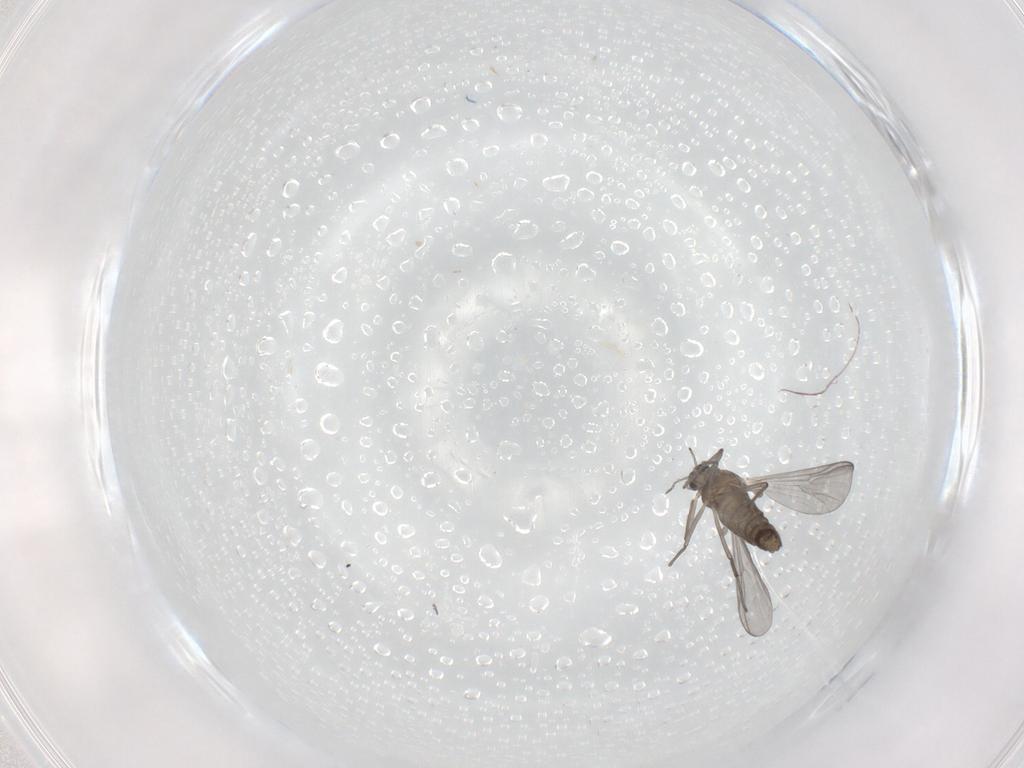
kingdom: Animalia
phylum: Arthropoda
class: Insecta
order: Diptera
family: Chironomidae
